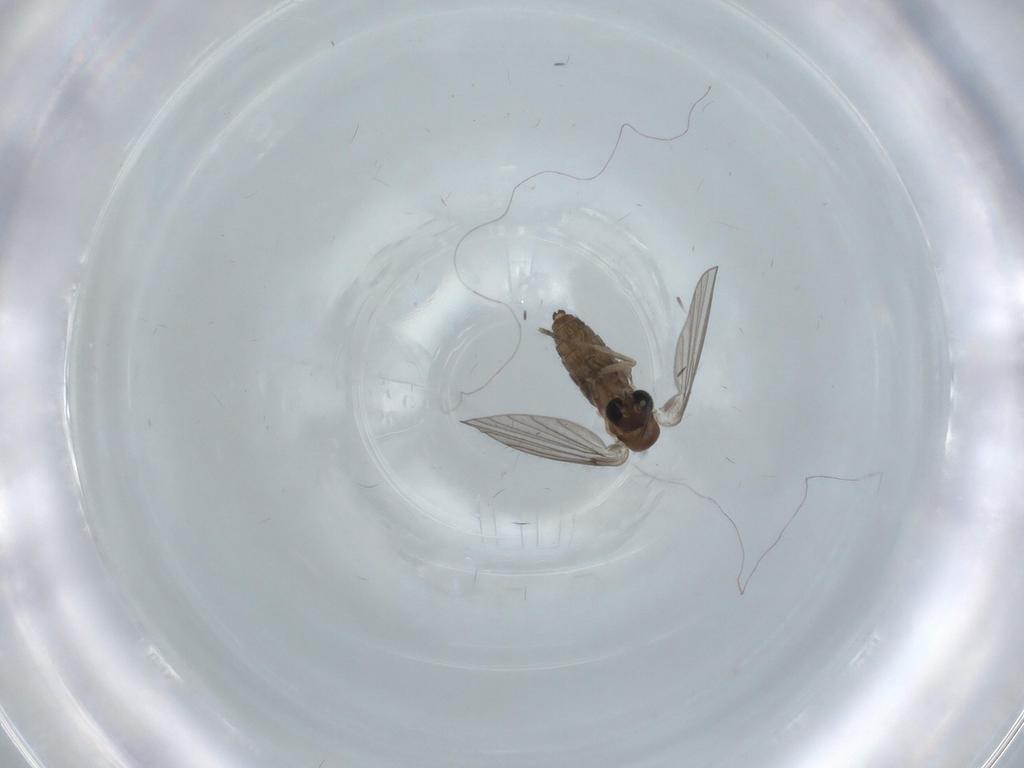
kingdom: Animalia
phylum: Arthropoda
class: Insecta
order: Diptera
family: Psychodidae
